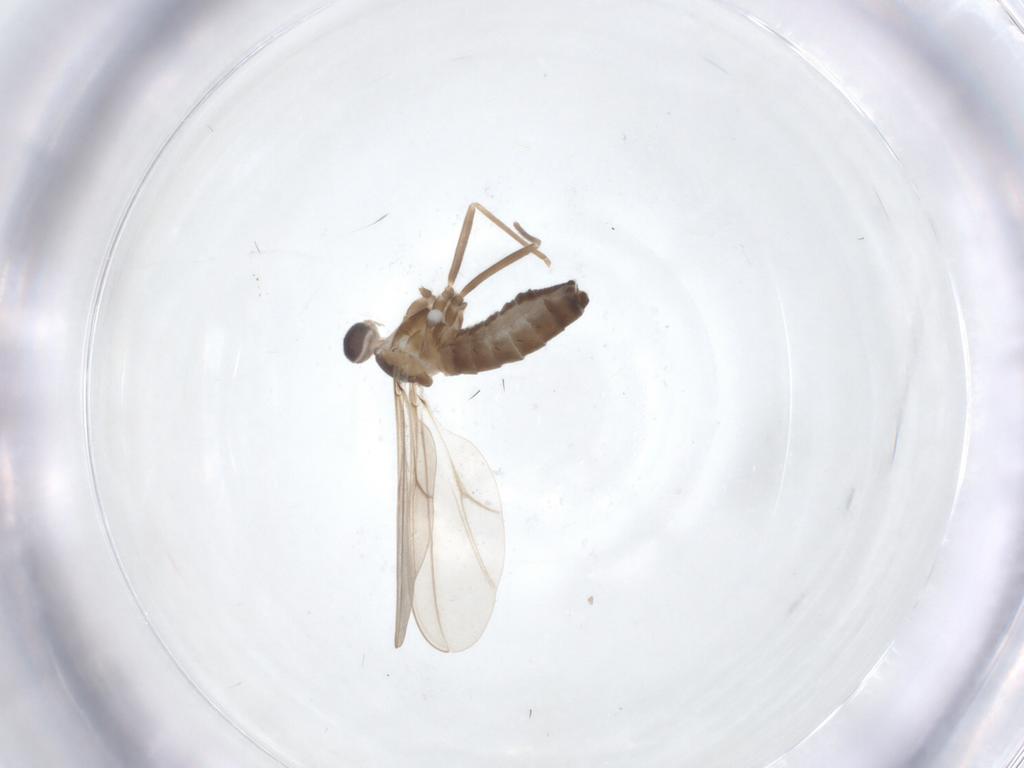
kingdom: Animalia
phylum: Arthropoda
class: Insecta
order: Diptera
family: Cecidomyiidae
